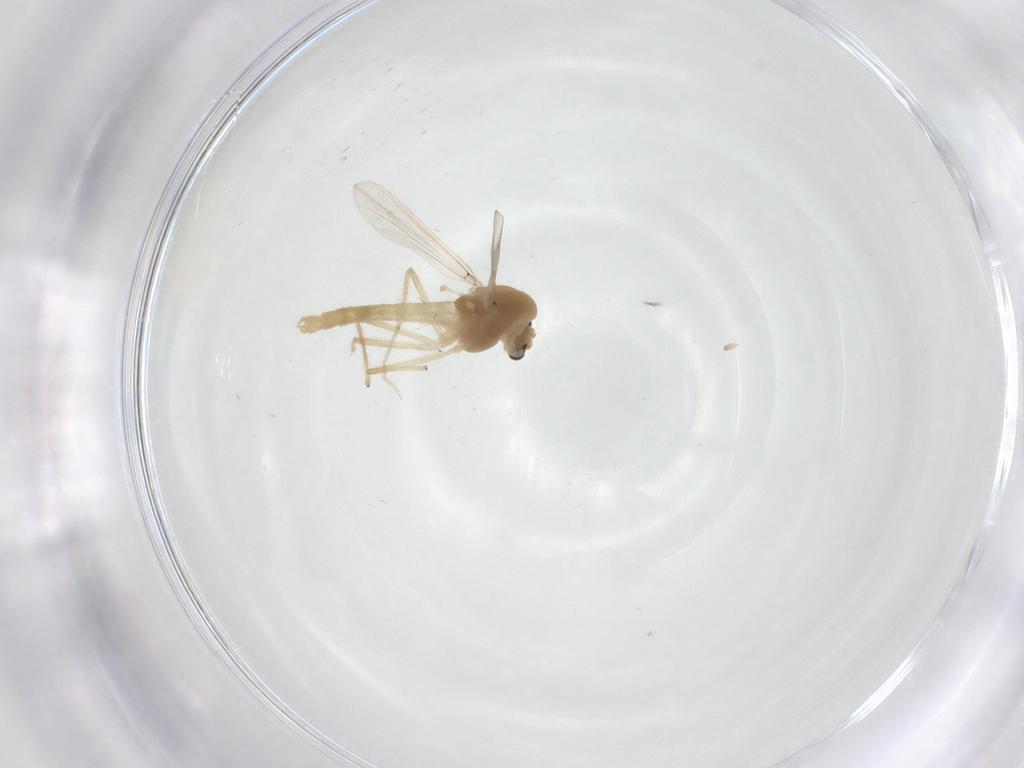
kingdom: Animalia
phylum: Arthropoda
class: Insecta
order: Diptera
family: Chironomidae
